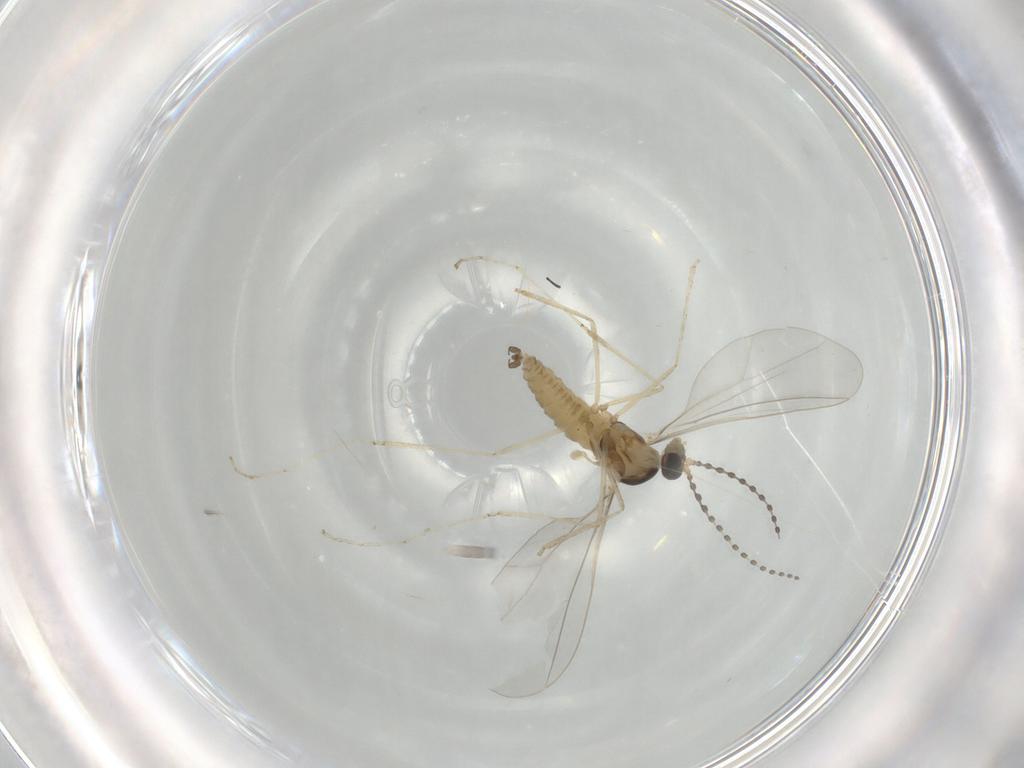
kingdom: Animalia
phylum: Arthropoda
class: Insecta
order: Diptera
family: Cecidomyiidae
